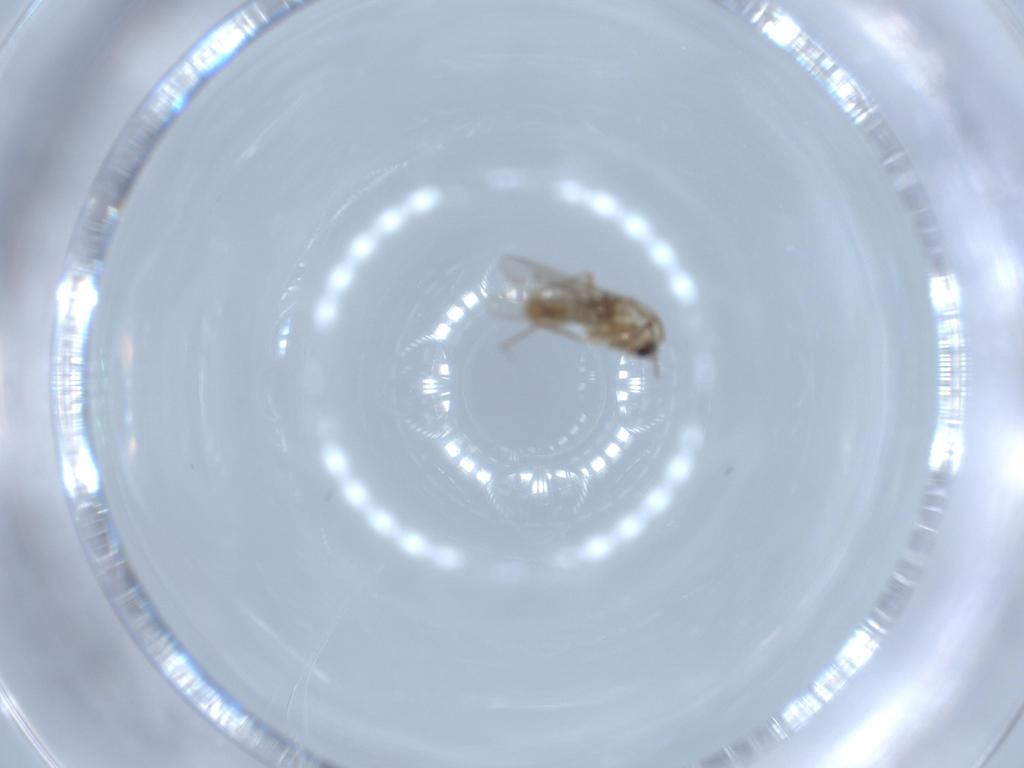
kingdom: Animalia
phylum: Arthropoda
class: Insecta
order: Diptera
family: Chironomidae
